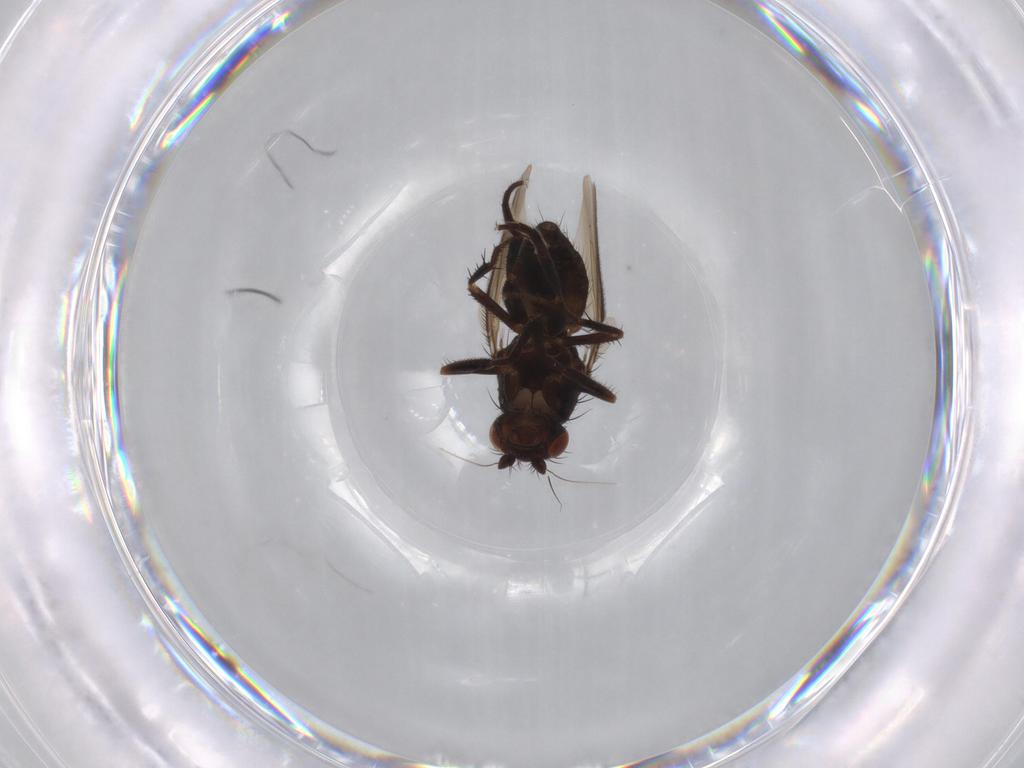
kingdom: Animalia
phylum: Arthropoda
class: Insecta
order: Diptera
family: Sphaeroceridae
